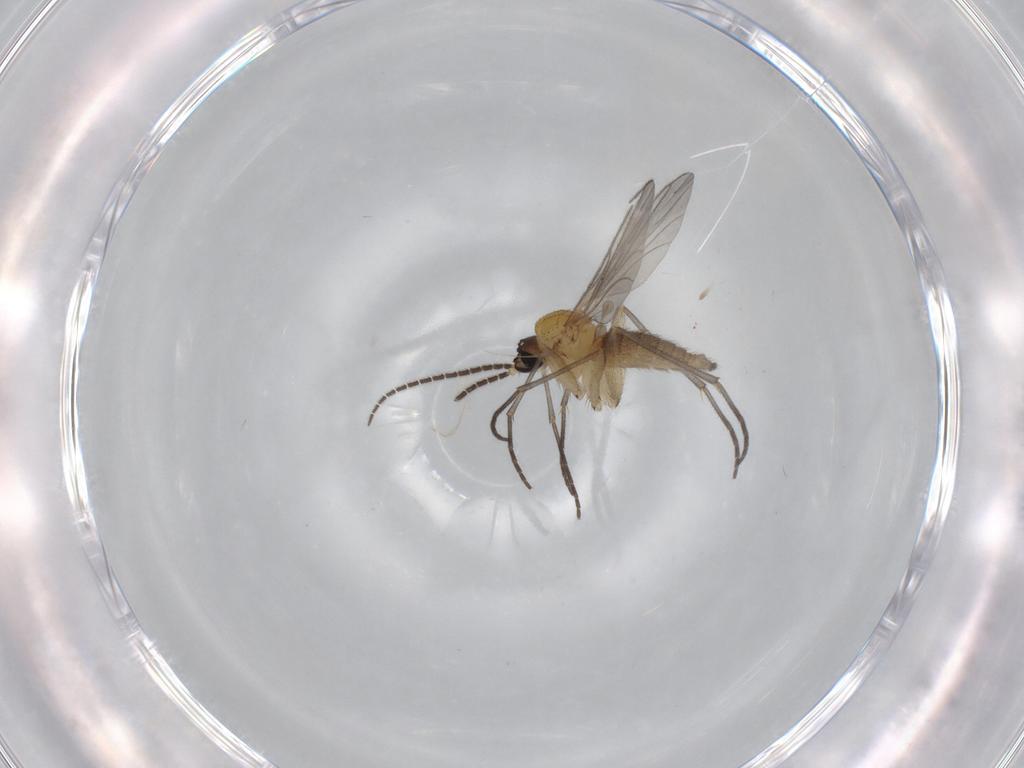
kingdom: Animalia
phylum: Arthropoda
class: Insecta
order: Diptera
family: Sciaridae
